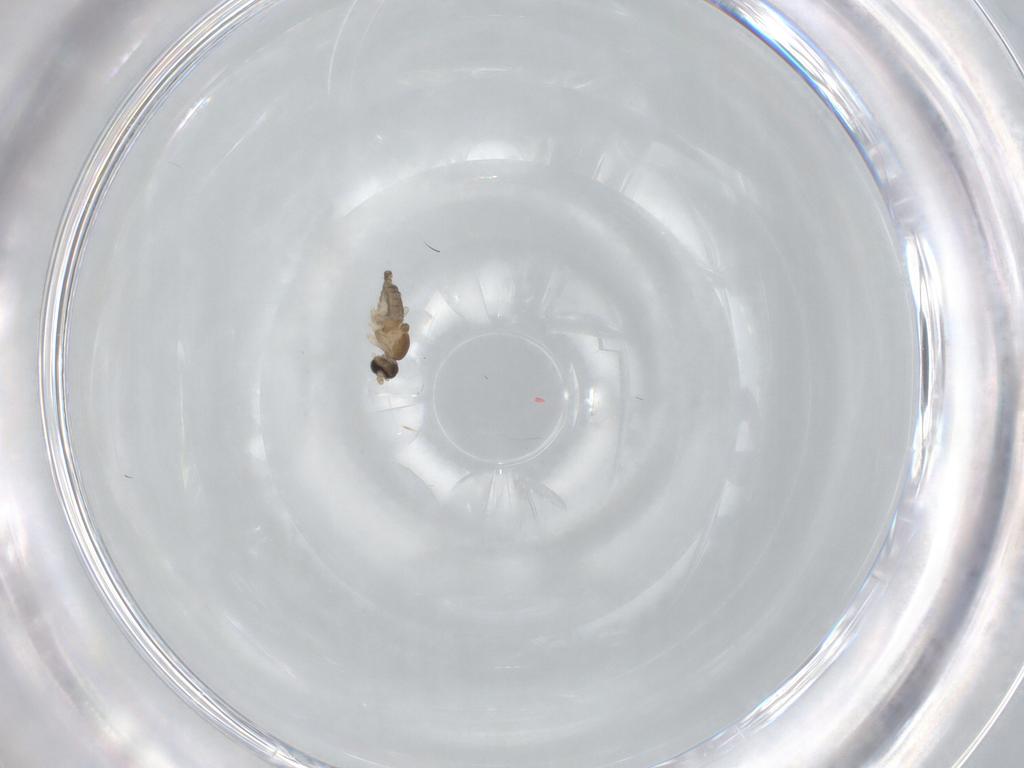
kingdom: Animalia
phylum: Arthropoda
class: Insecta
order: Diptera
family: Cecidomyiidae
